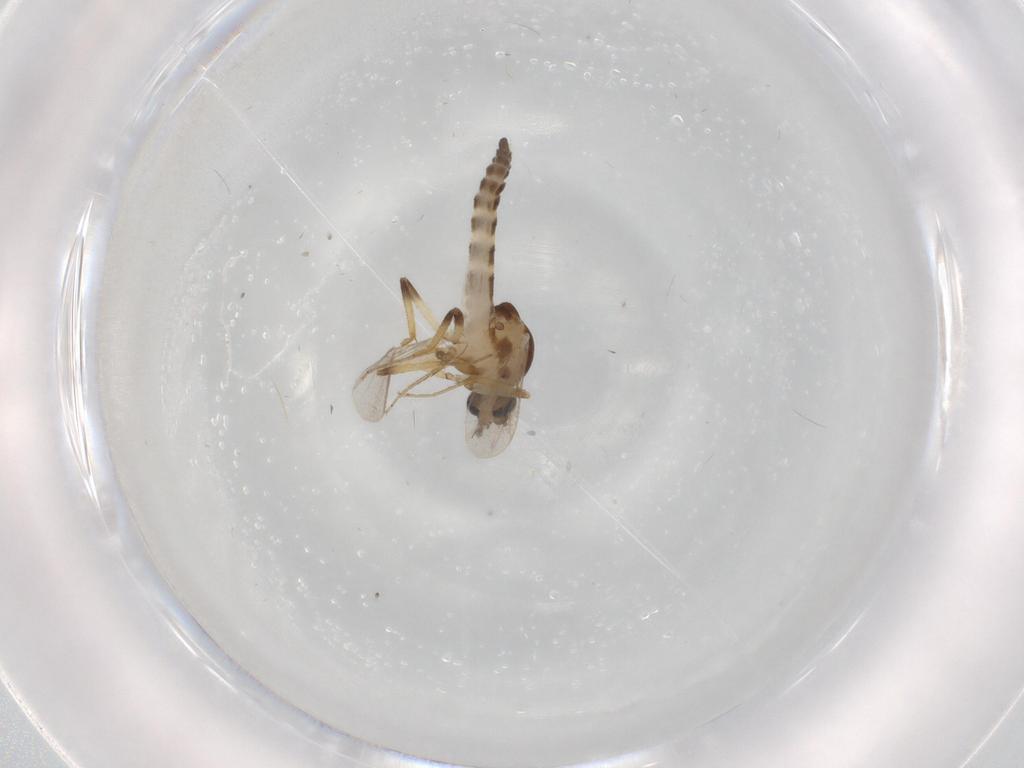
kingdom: Animalia
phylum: Arthropoda
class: Insecta
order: Diptera
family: Ceratopogonidae
